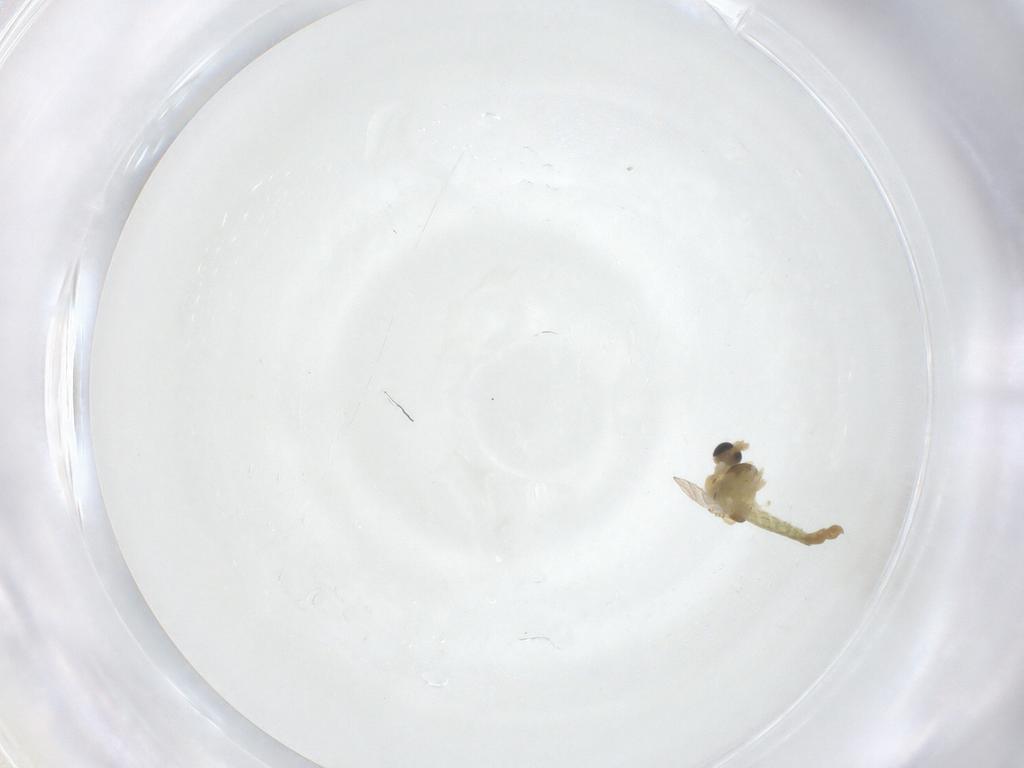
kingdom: Animalia
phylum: Arthropoda
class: Insecta
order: Diptera
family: Chironomidae
